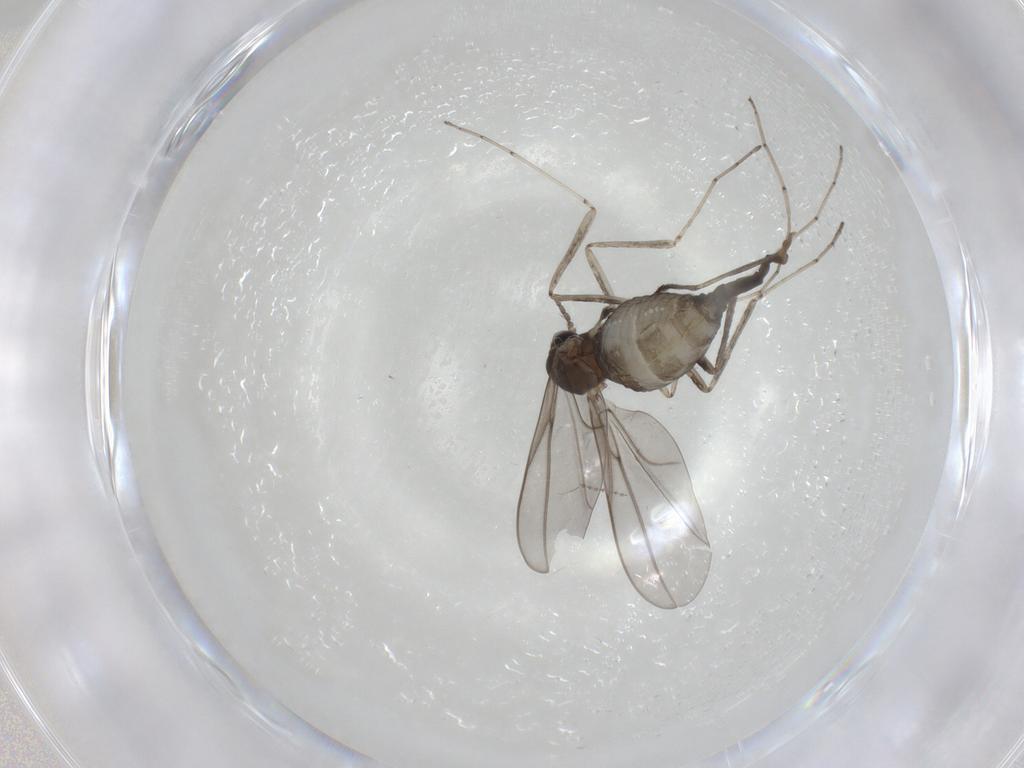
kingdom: Animalia
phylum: Arthropoda
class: Insecta
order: Diptera
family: Cecidomyiidae
